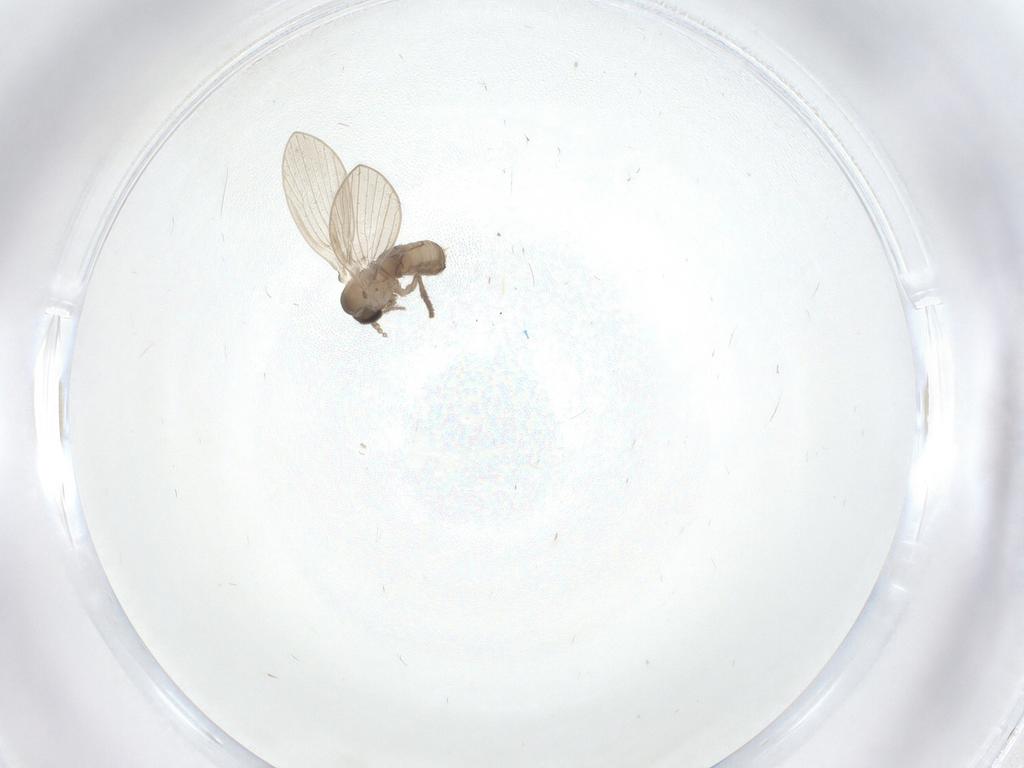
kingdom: Animalia
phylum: Arthropoda
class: Insecta
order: Diptera
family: Psychodidae
